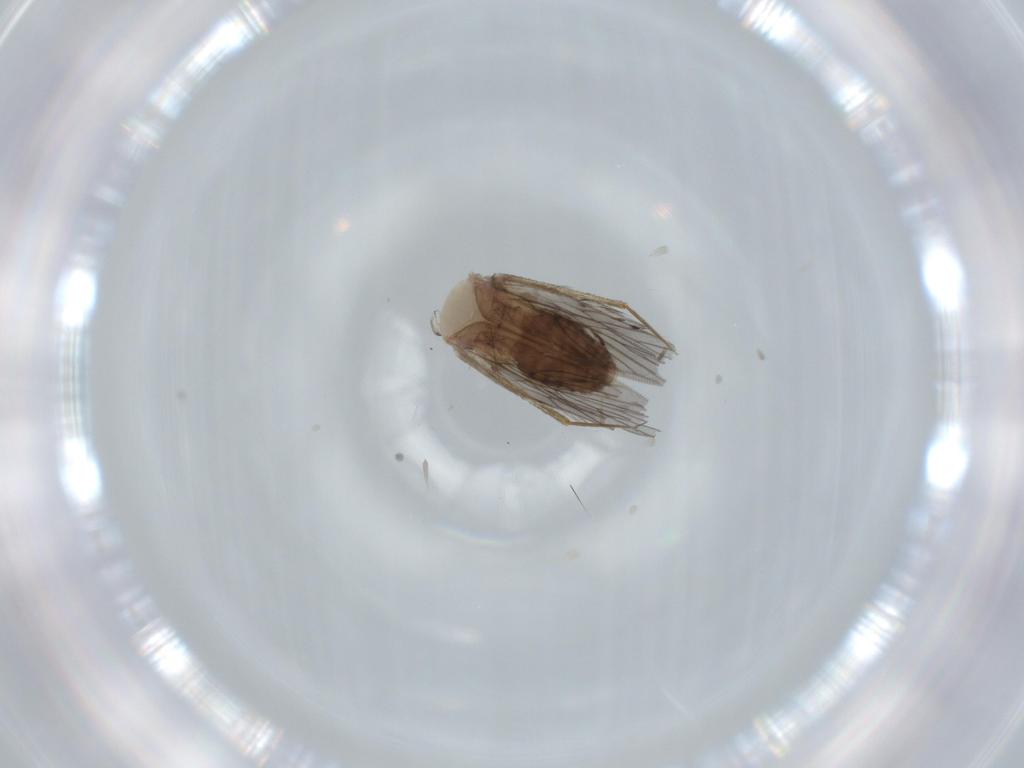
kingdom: Animalia
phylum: Arthropoda
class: Insecta
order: Psocodea
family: Lepidopsocidae
